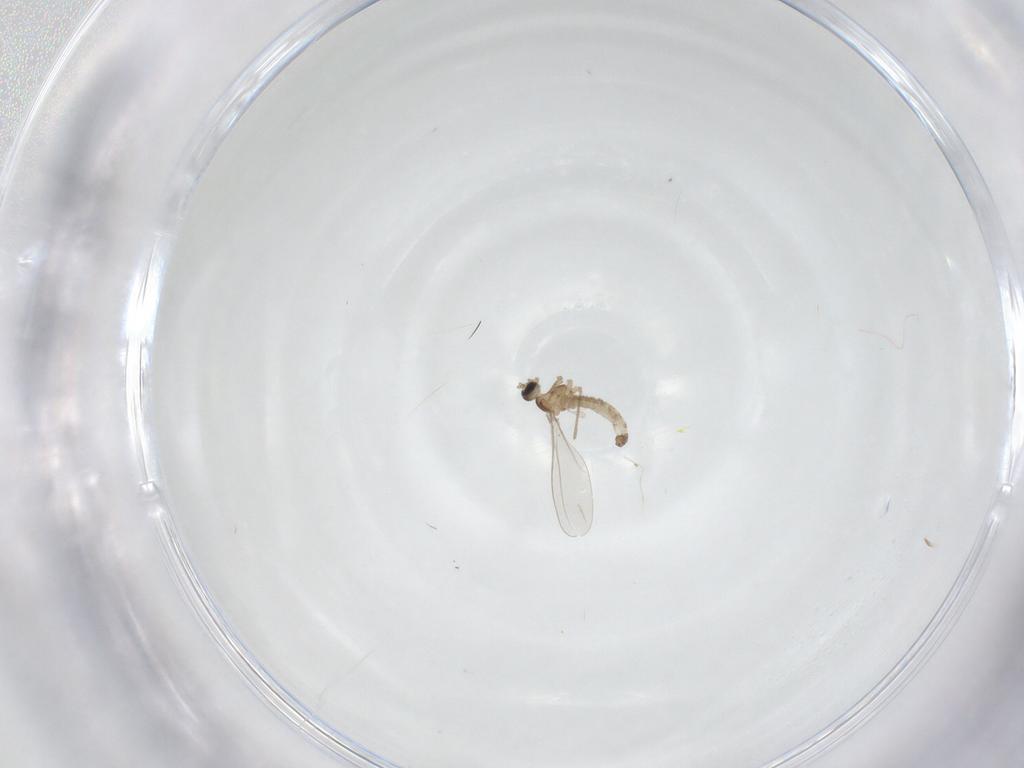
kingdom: Animalia
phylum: Arthropoda
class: Insecta
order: Diptera
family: Cecidomyiidae
